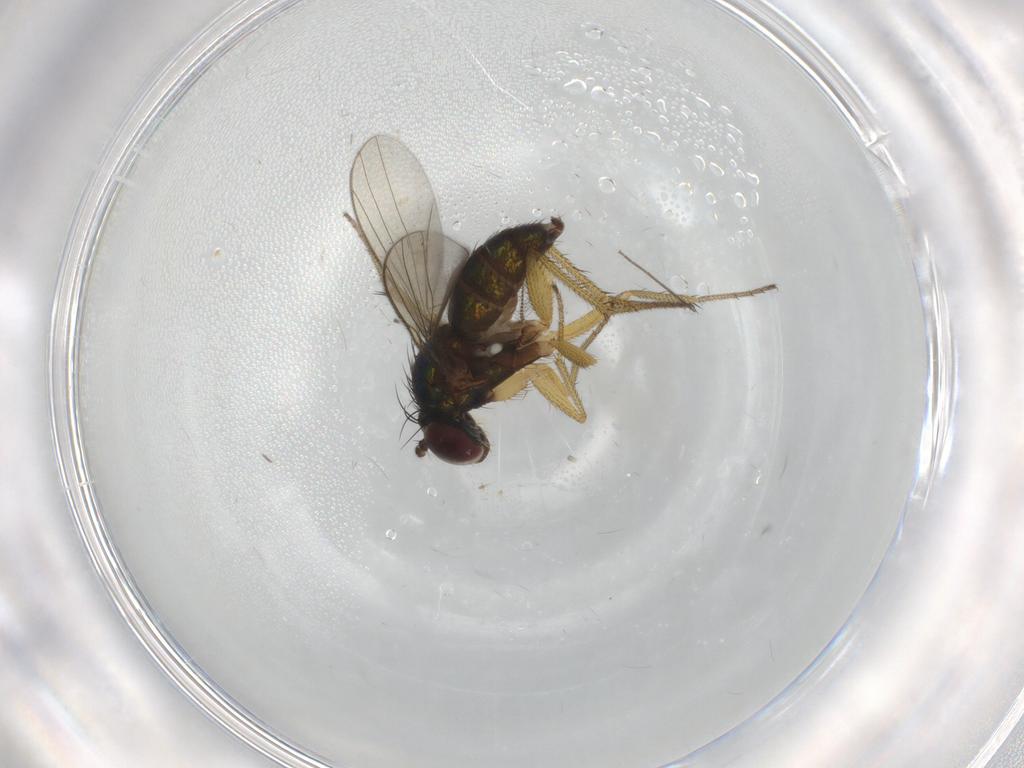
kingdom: Animalia
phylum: Arthropoda
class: Insecta
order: Diptera
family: Chironomidae
